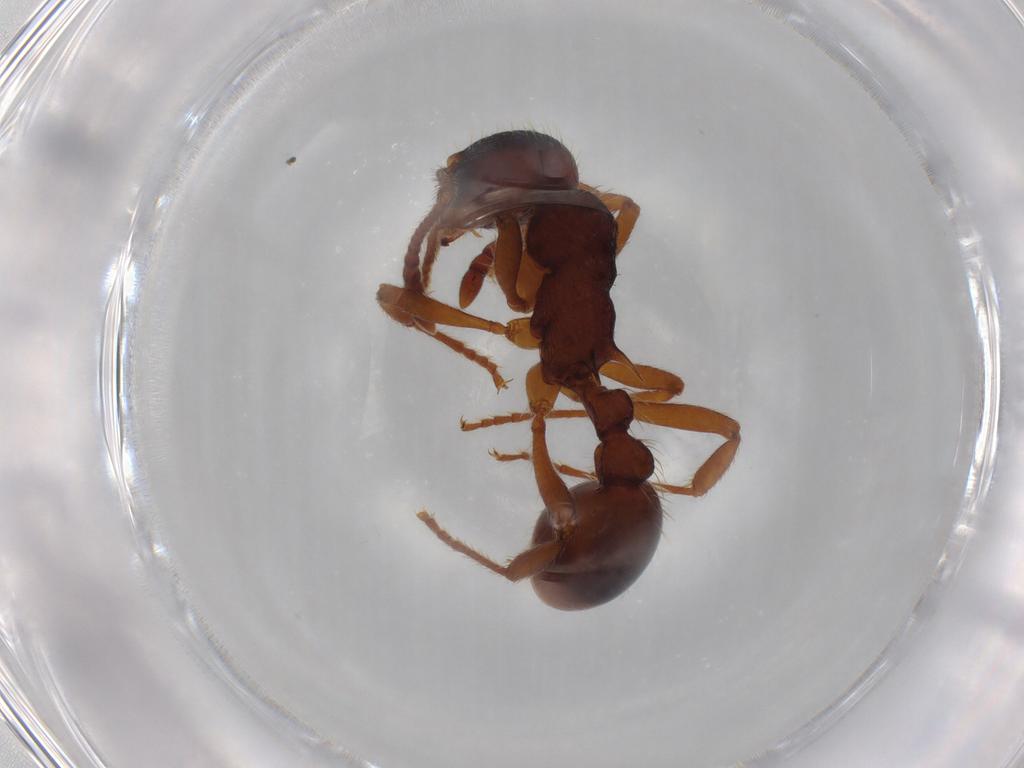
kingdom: Animalia
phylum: Arthropoda
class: Insecta
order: Hymenoptera
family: Formicidae
